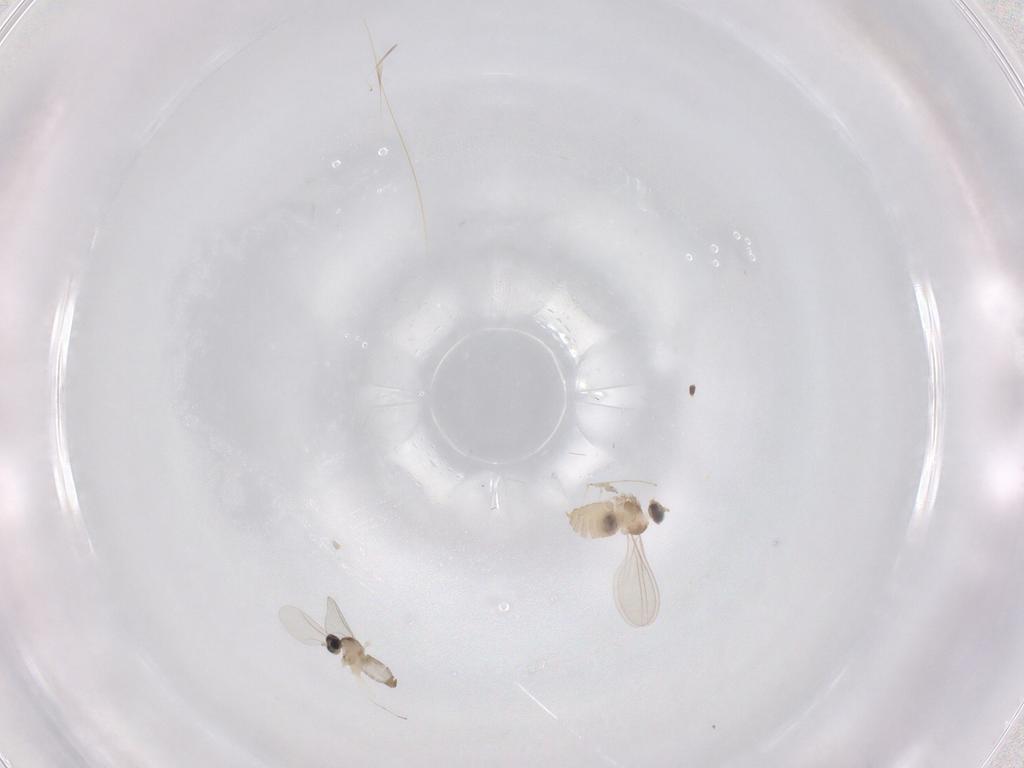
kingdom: Animalia
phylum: Arthropoda
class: Insecta
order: Diptera
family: Cecidomyiidae
